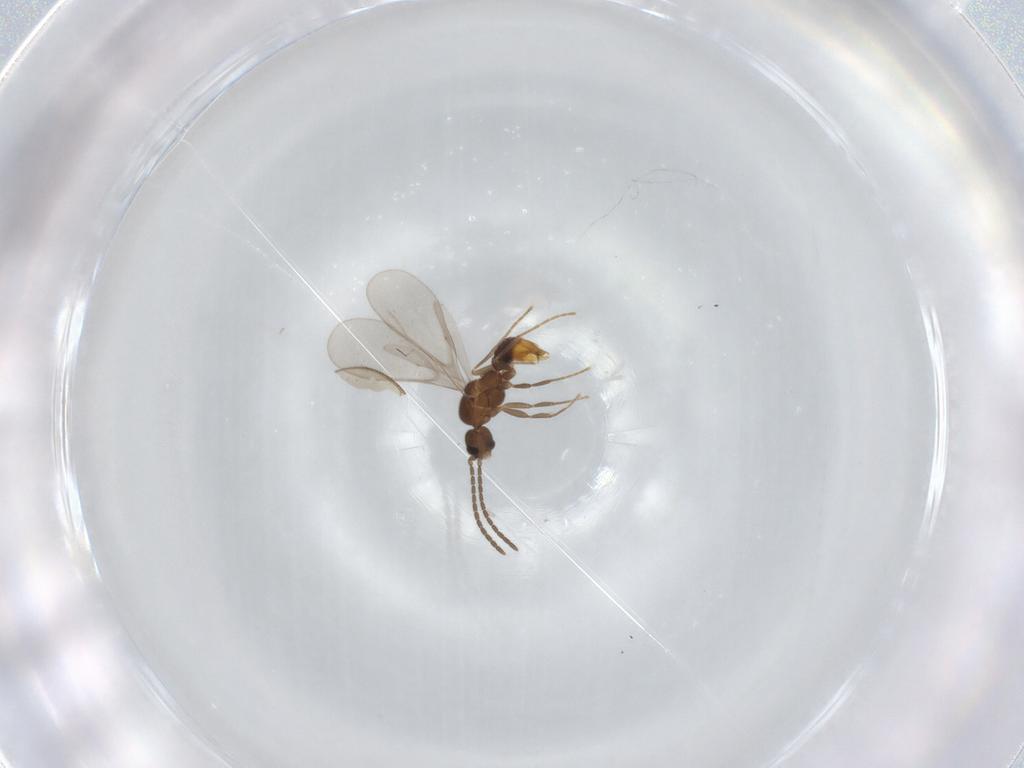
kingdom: Animalia
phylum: Arthropoda
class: Insecta
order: Hymenoptera
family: Formicidae
